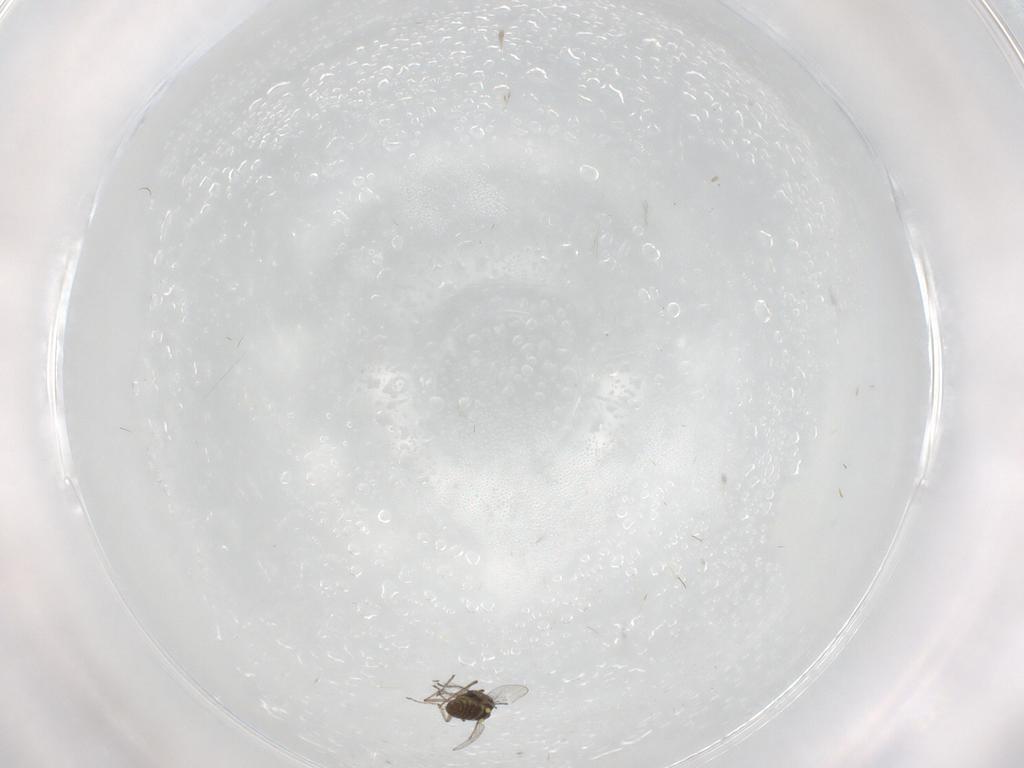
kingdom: Animalia
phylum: Arthropoda
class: Insecta
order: Diptera
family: Ceratopogonidae
